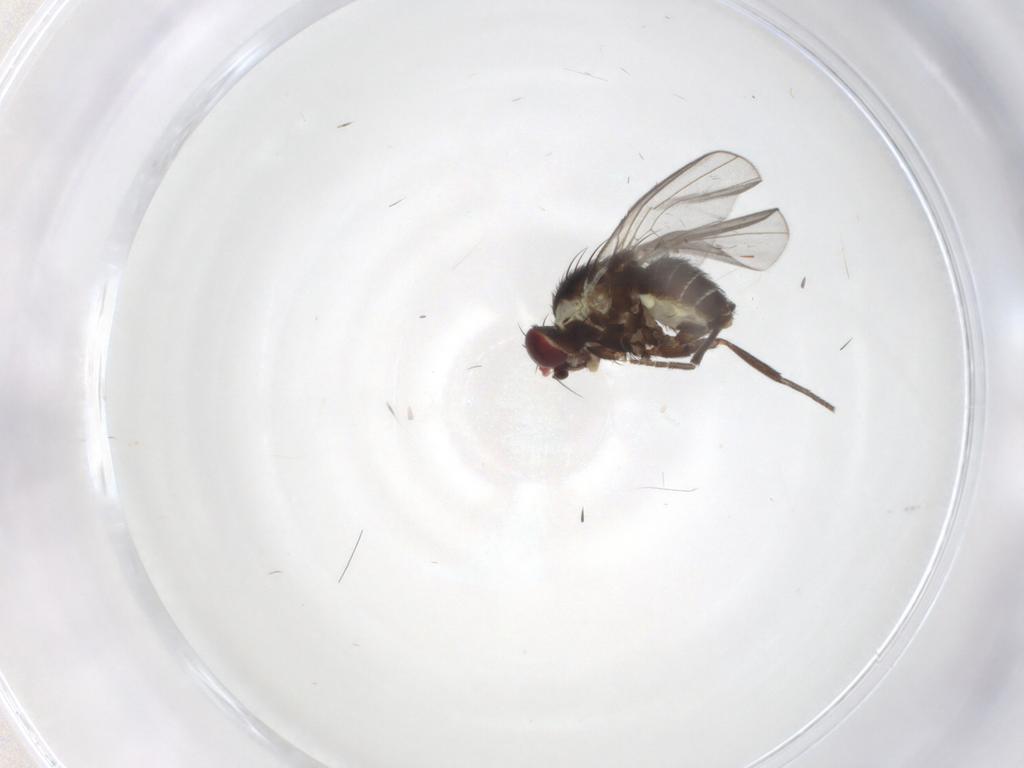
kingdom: Animalia
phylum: Arthropoda
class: Insecta
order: Diptera
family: Agromyzidae
